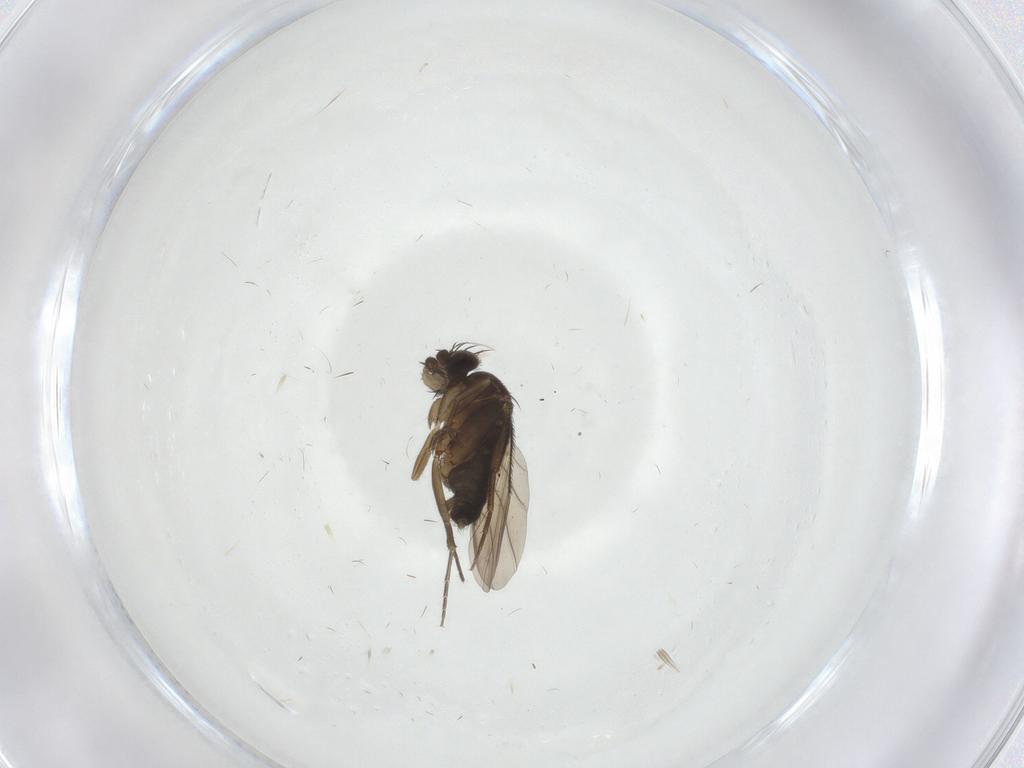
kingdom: Animalia
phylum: Arthropoda
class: Insecta
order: Diptera
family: Phoridae
